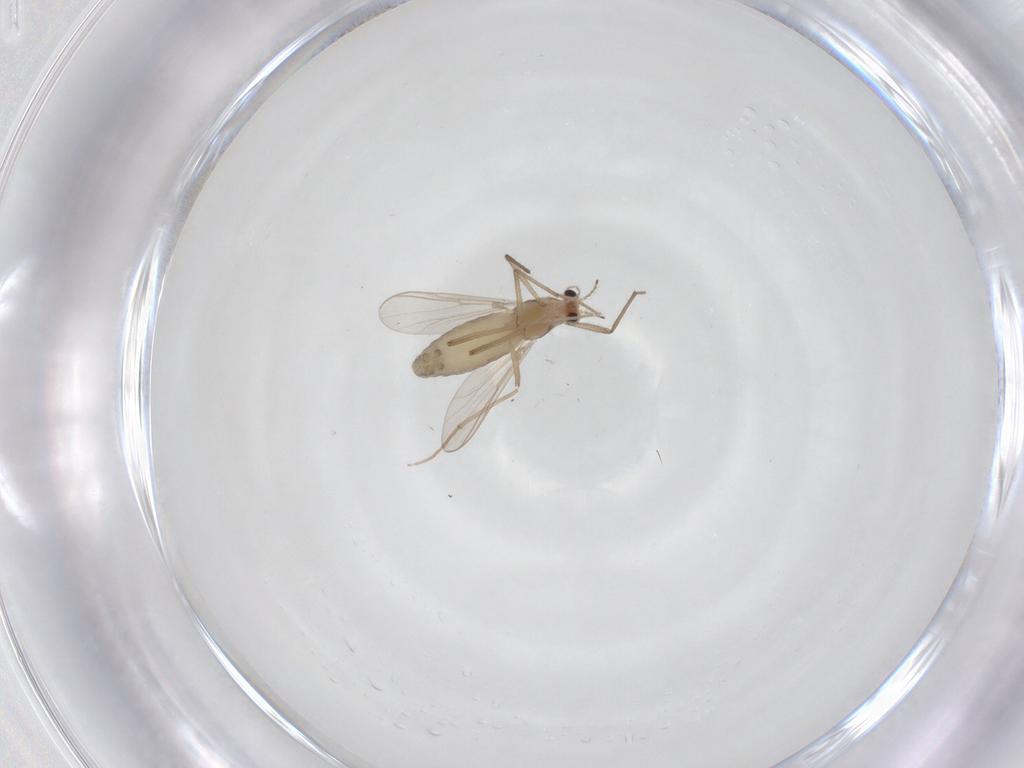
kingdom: Animalia
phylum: Arthropoda
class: Insecta
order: Diptera
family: Chironomidae
